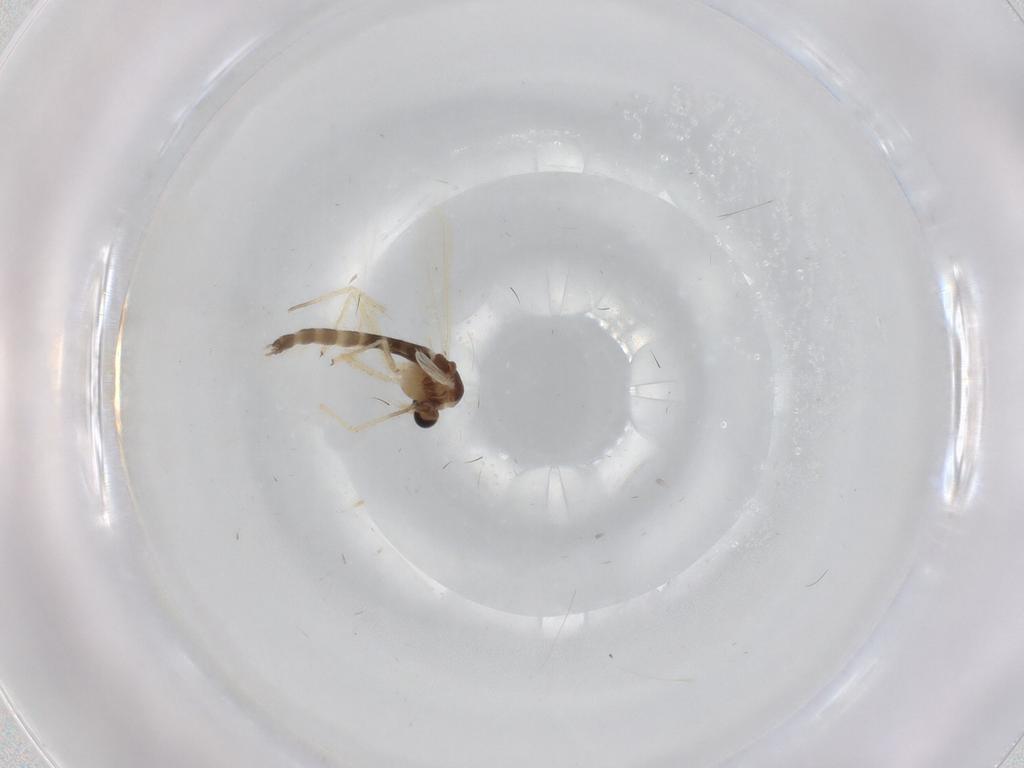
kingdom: Animalia
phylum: Arthropoda
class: Insecta
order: Diptera
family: Chironomidae
